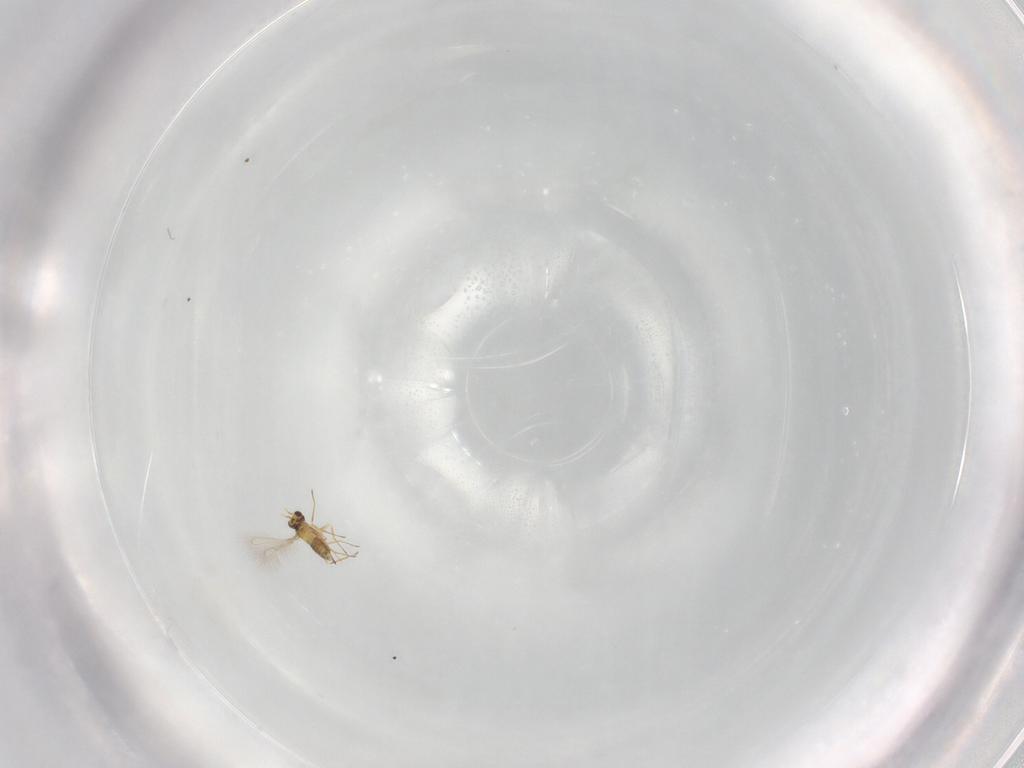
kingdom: Animalia
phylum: Arthropoda
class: Insecta
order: Hymenoptera
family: Mymaridae
